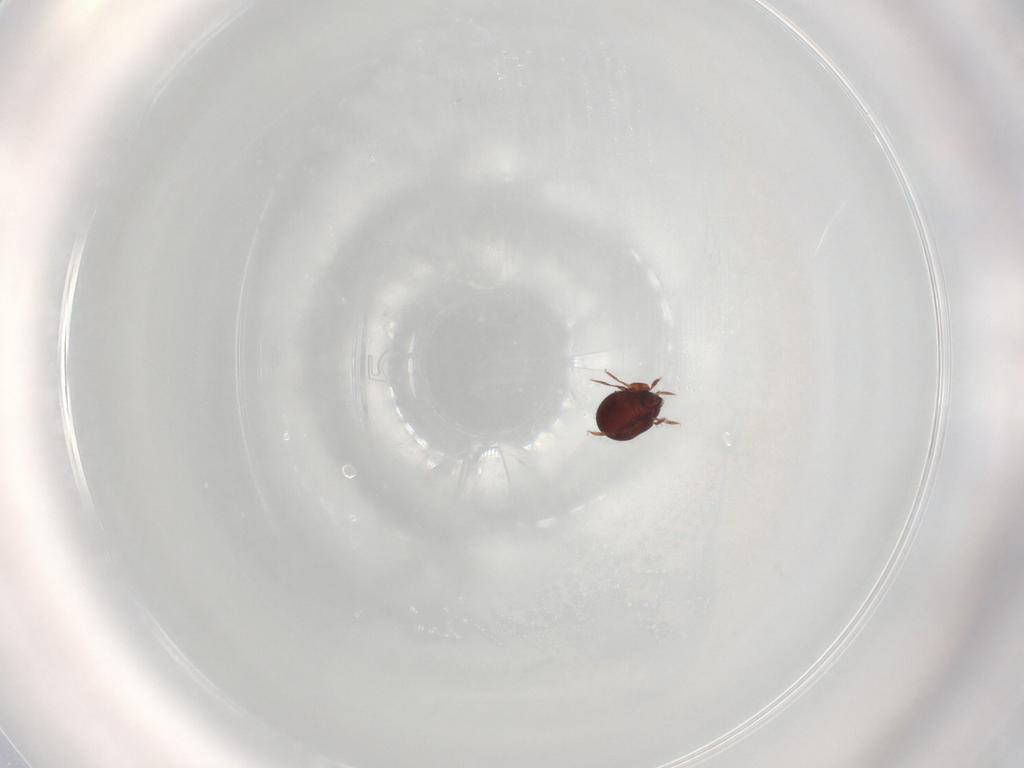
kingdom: Animalia
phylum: Arthropoda
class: Arachnida
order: Sarcoptiformes
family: Humerobatidae
